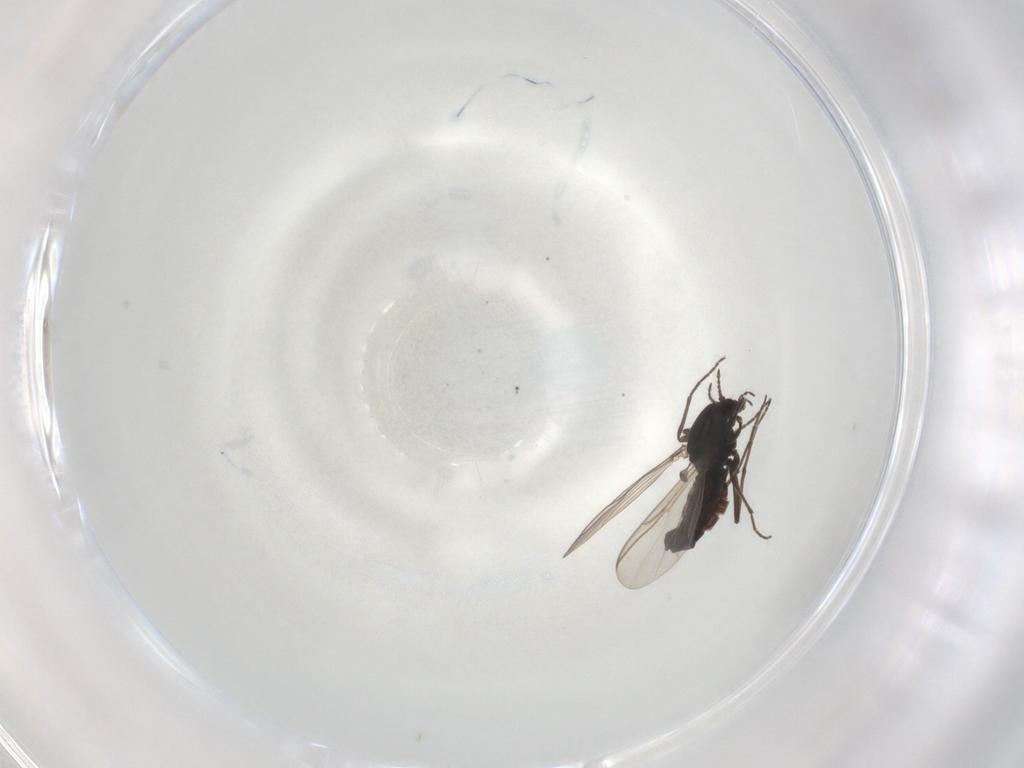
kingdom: Animalia
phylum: Arthropoda
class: Insecta
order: Diptera
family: Chironomidae
